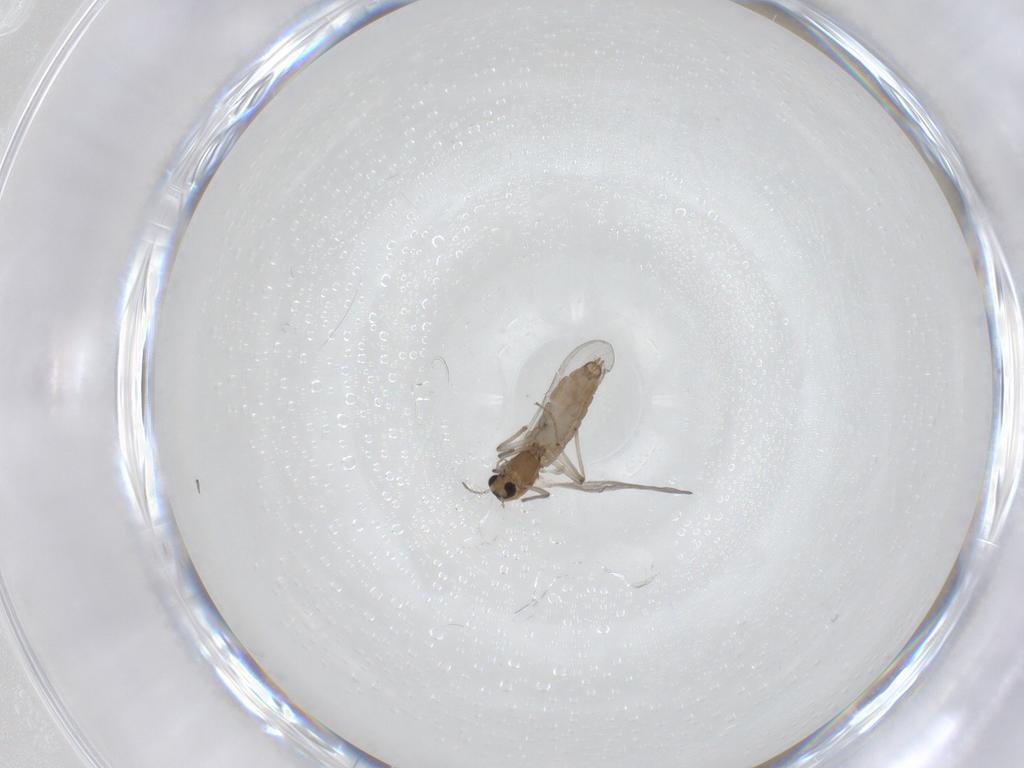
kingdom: Animalia
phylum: Arthropoda
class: Insecta
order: Diptera
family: Chironomidae
